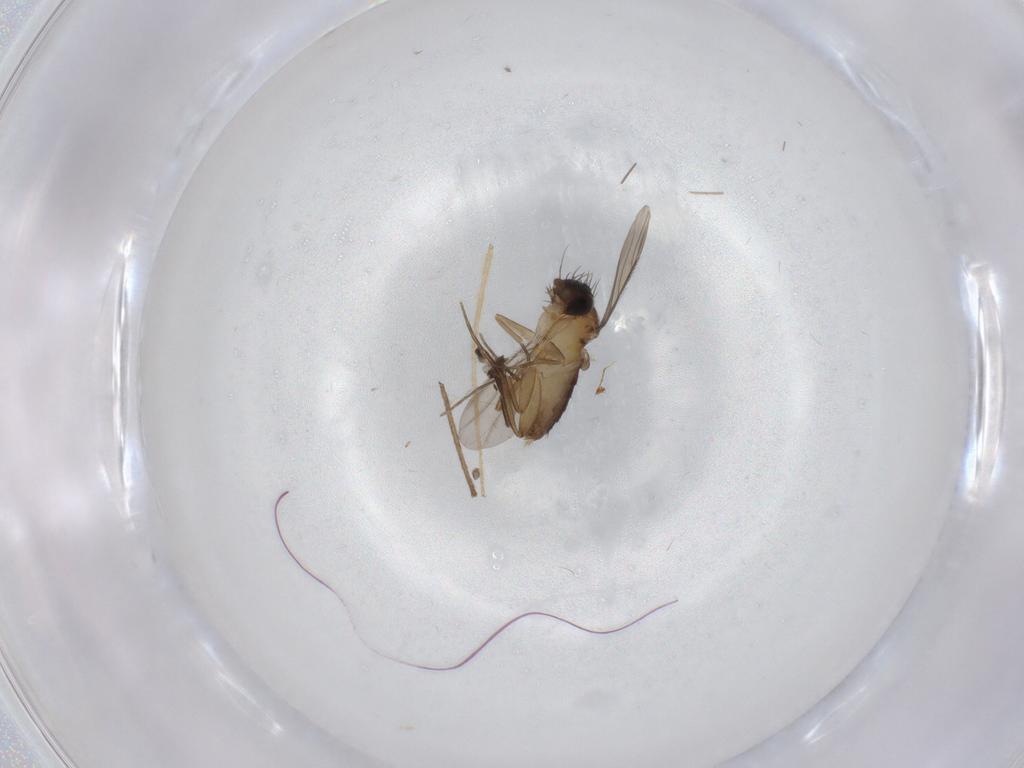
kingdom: Animalia
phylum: Arthropoda
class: Insecta
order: Diptera
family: Phoridae
